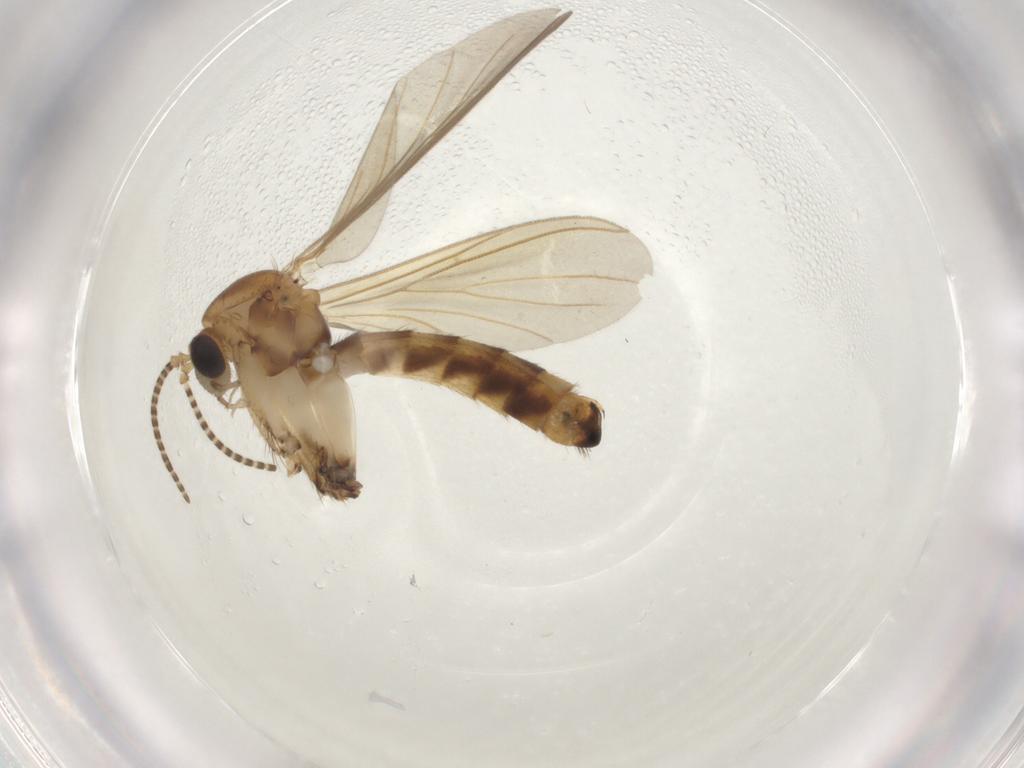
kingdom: Animalia
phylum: Arthropoda
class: Insecta
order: Diptera
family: Mycetophilidae
